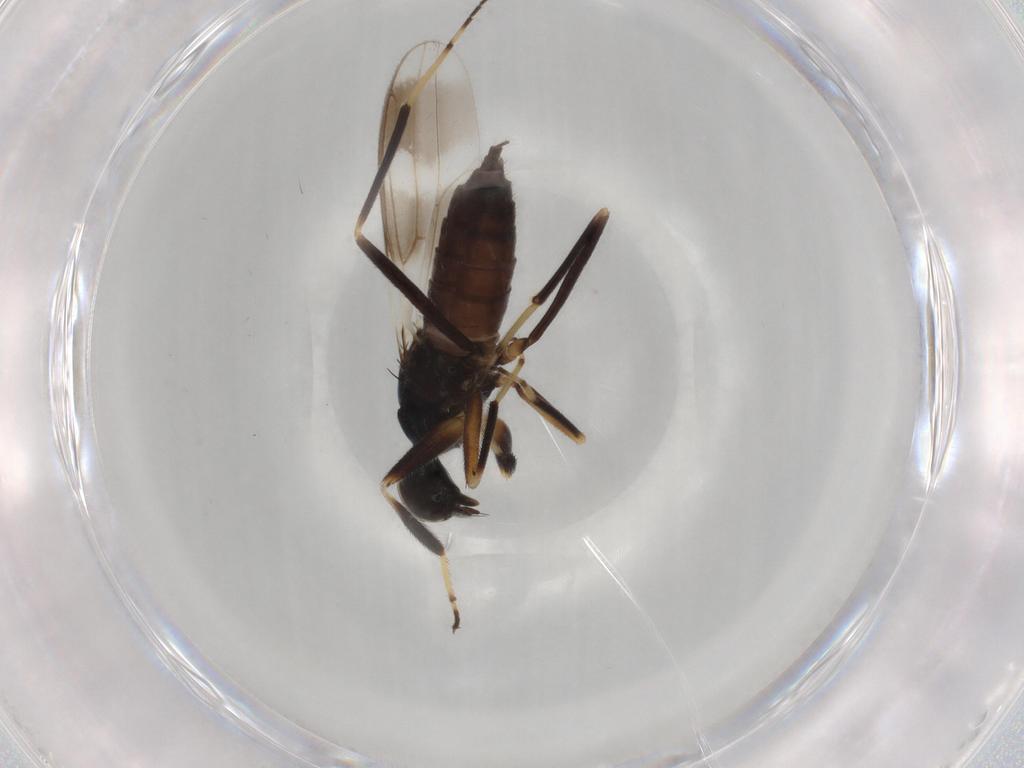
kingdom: Animalia
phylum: Arthropoda
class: Insecta
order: Diptera
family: Hybotidae
